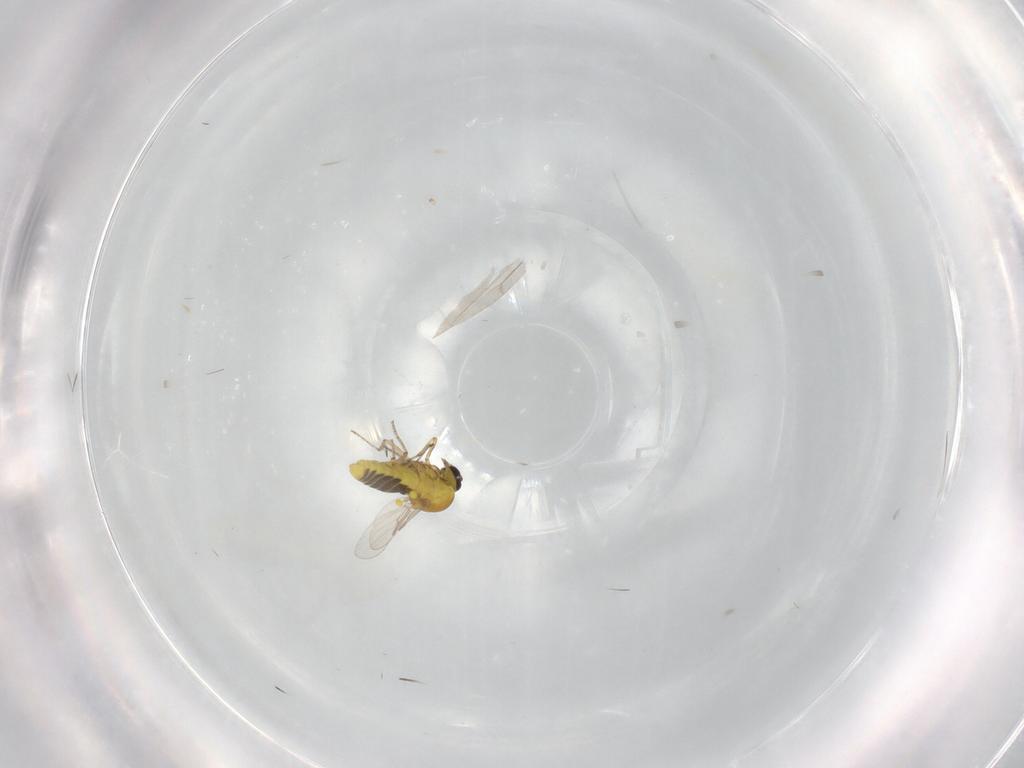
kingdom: Animalia
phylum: Arthropoda
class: Insecta
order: Diptera
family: Ceratopogonidae
